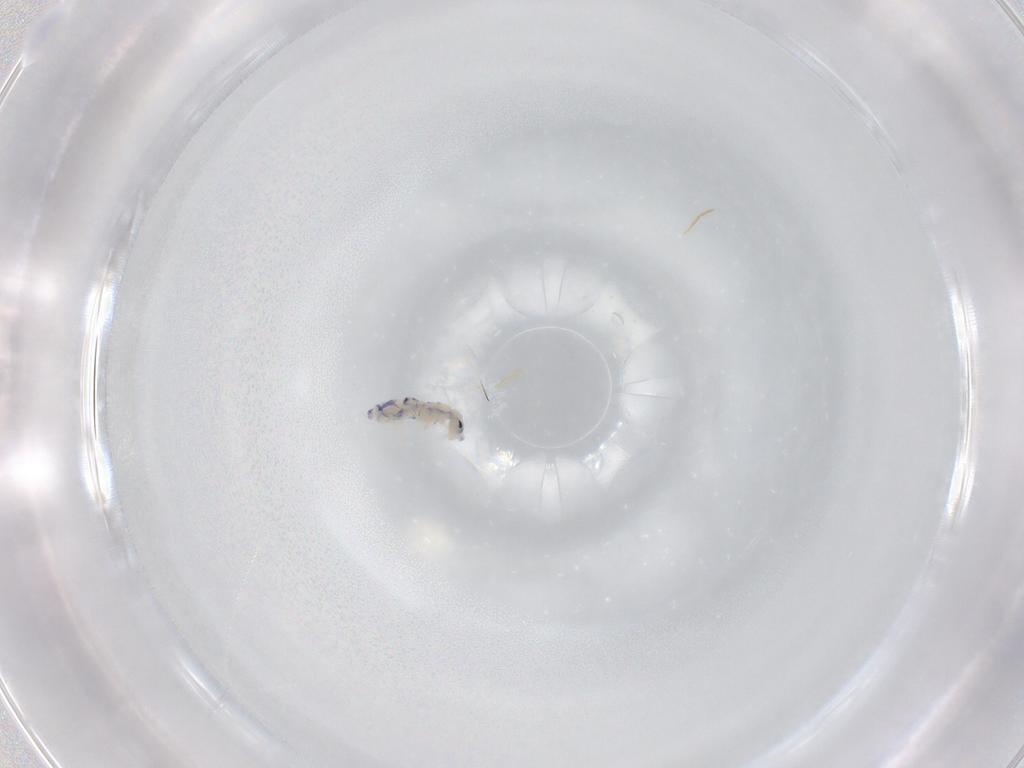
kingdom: Animalia
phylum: Arthropoda
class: Collembola
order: Entomobryomorpha
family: Entomobryidae
